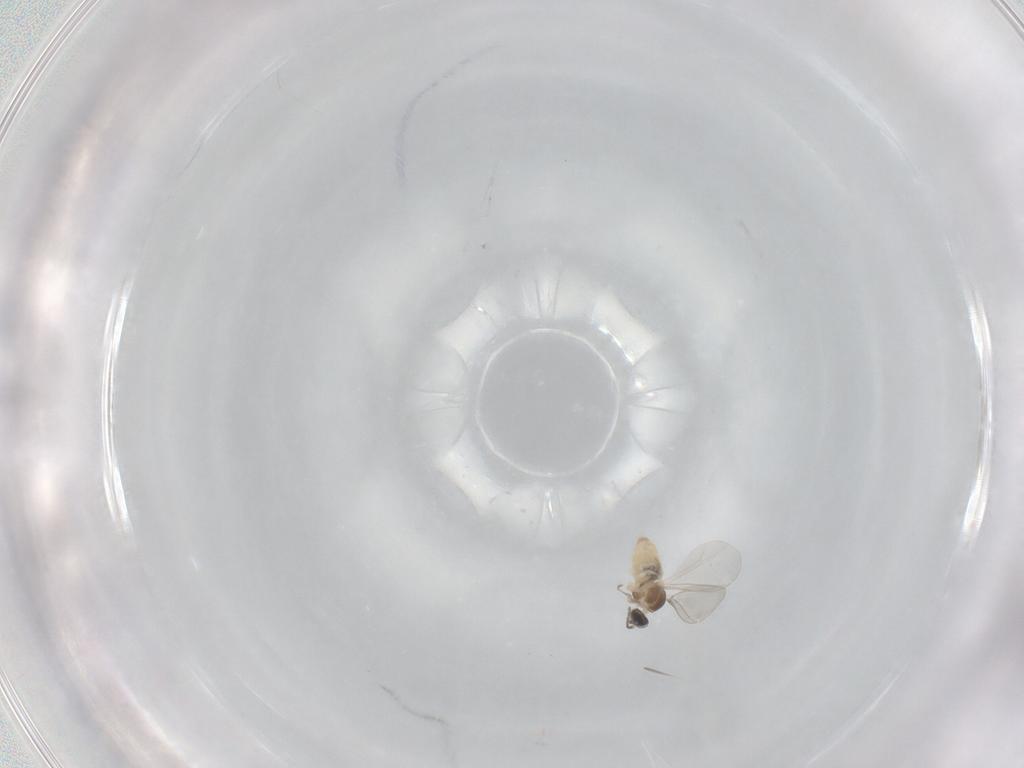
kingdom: Animalia
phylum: Arthropoda
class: Insecta
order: Diptera
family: Cecidomyiidae
